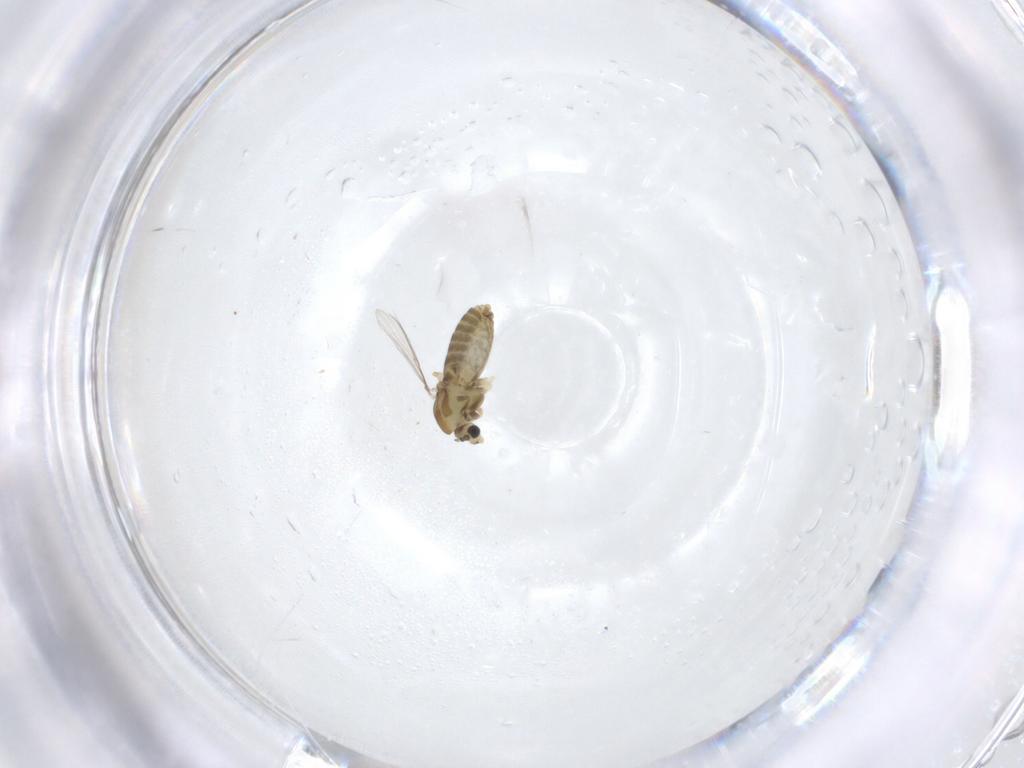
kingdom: Animalia
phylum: Arthropoda
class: Insecta
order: Diptera
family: Chironomidae
